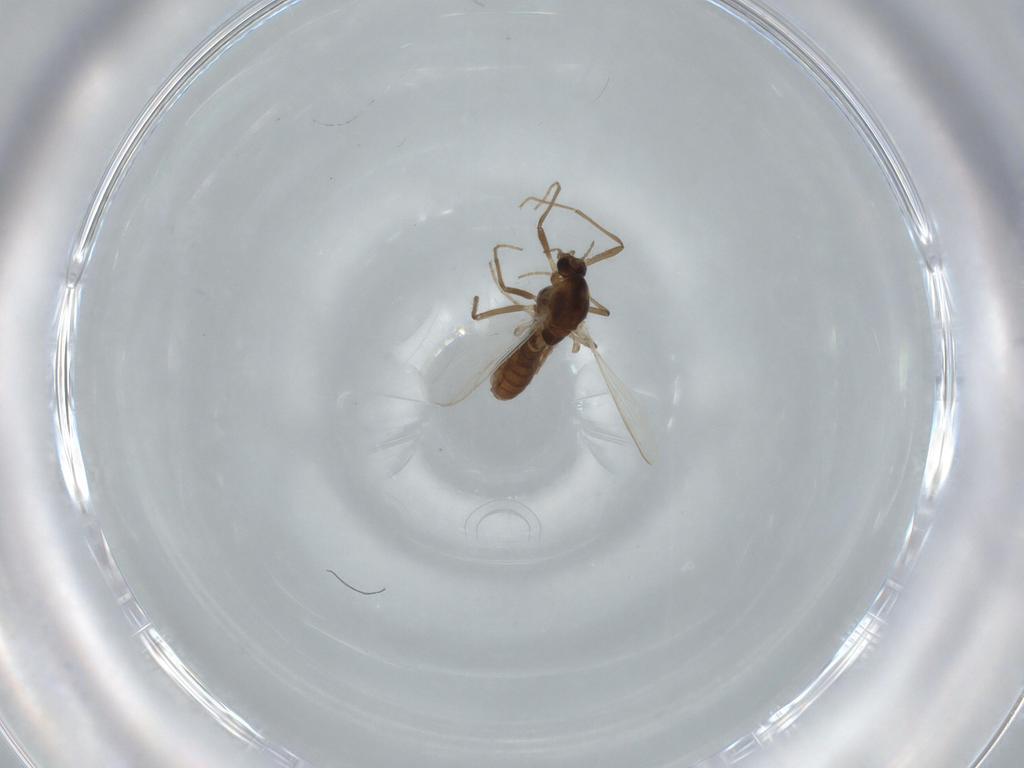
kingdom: Animalia
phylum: Arthropoda
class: Insecta
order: Diptera
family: Chironomidae
